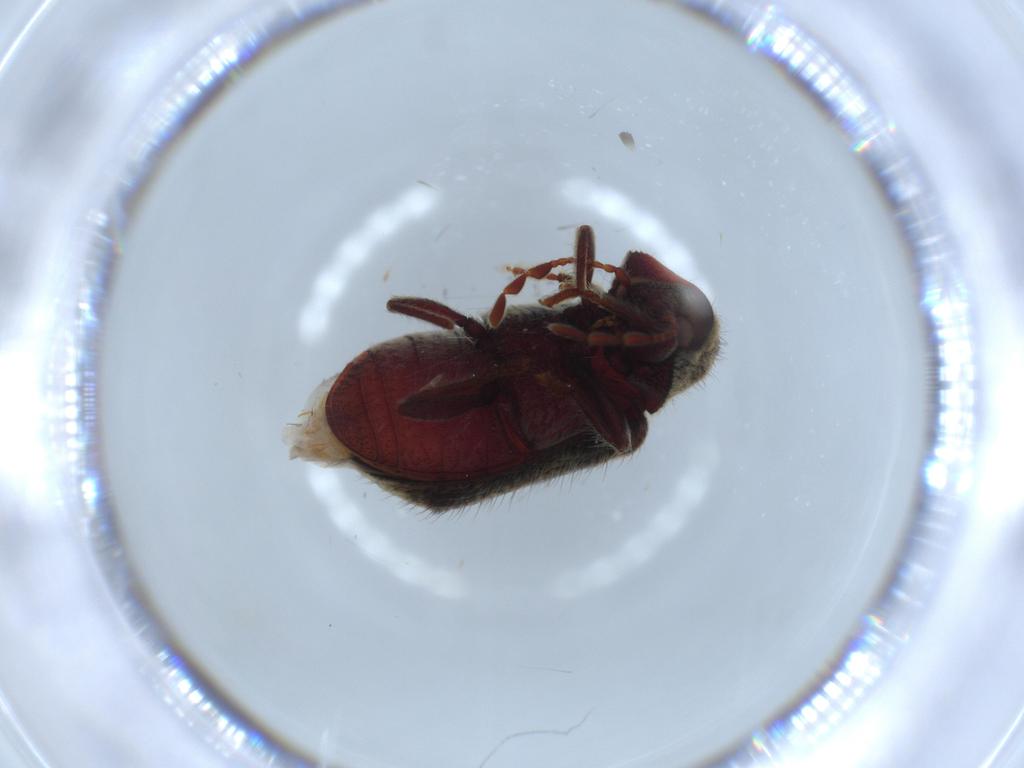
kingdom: Animalia
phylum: Arthropoda
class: Insecta
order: Coleoptera
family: Ptinidae
